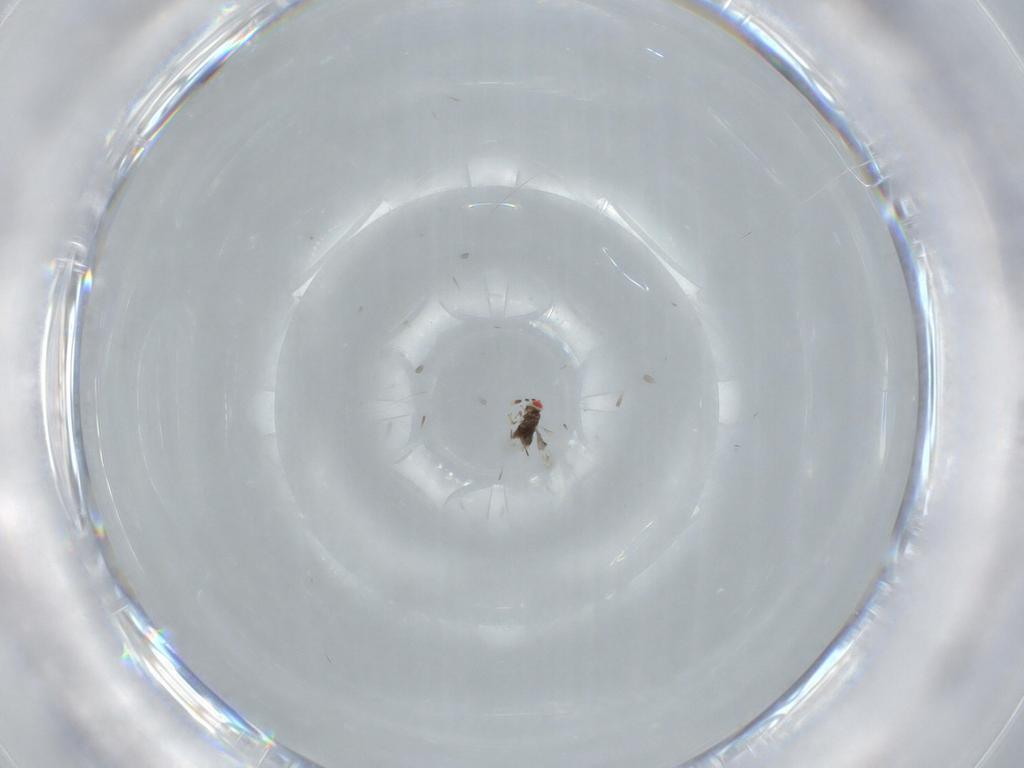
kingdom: Animalia
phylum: Arthropoda
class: Insecta
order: Hymenoptera
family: Azotidae
